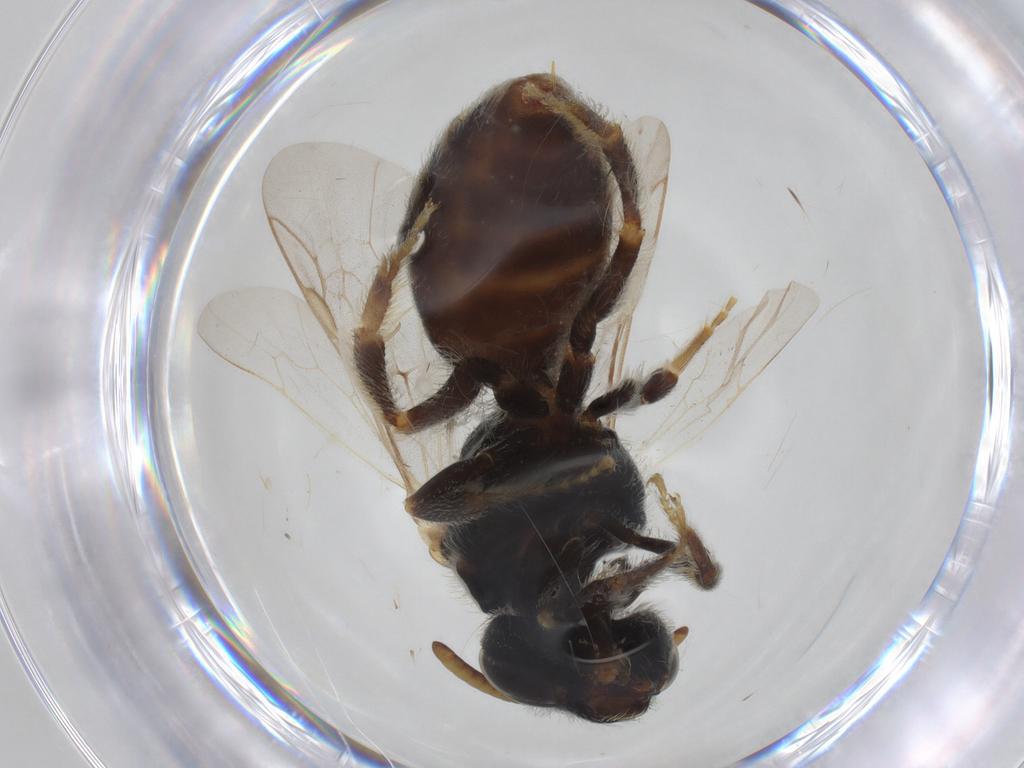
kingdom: Animalia
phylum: Arthropoda
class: Insecta
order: Hymenoptera
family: Halictidae
